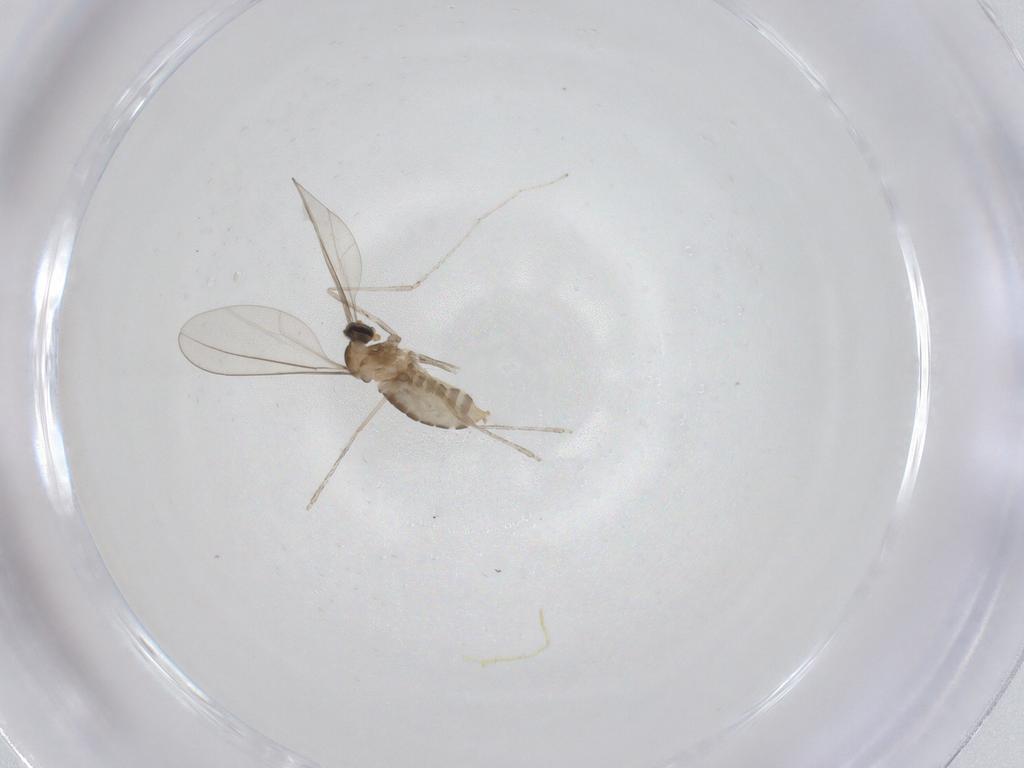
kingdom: Animalia
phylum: Arthropoda
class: Insecta
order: Diptera
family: Cecidomyiidae
